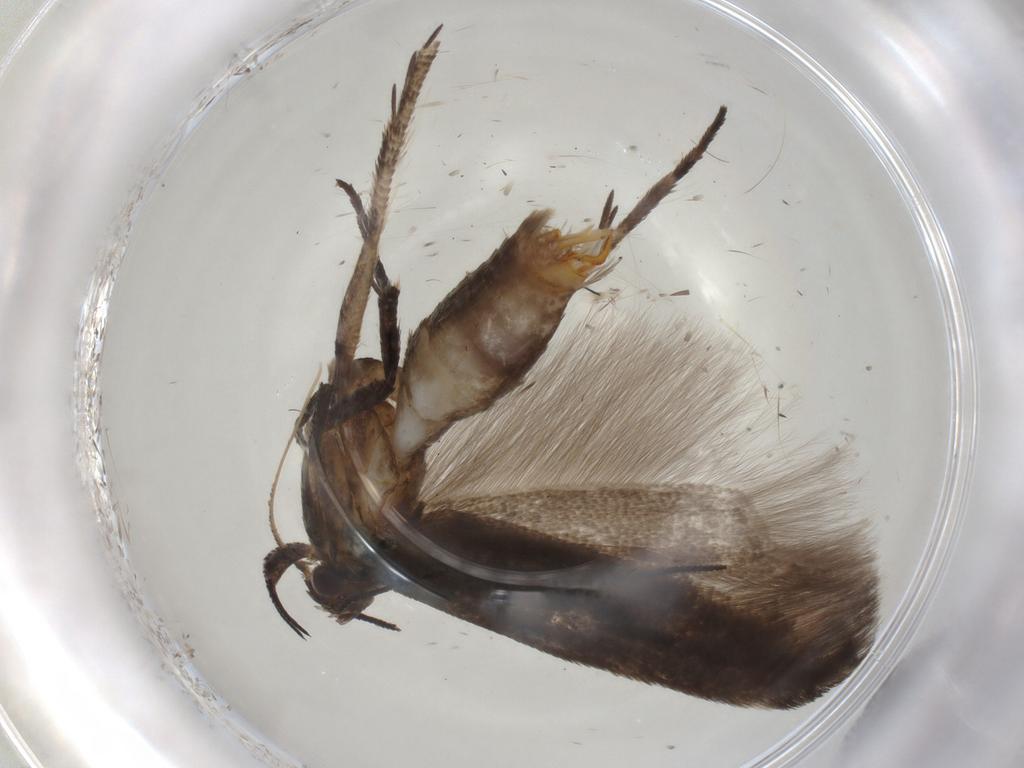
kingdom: Animalia
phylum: Arthropoda
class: Insecta
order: Lepidoptera
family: Gelechiidae
